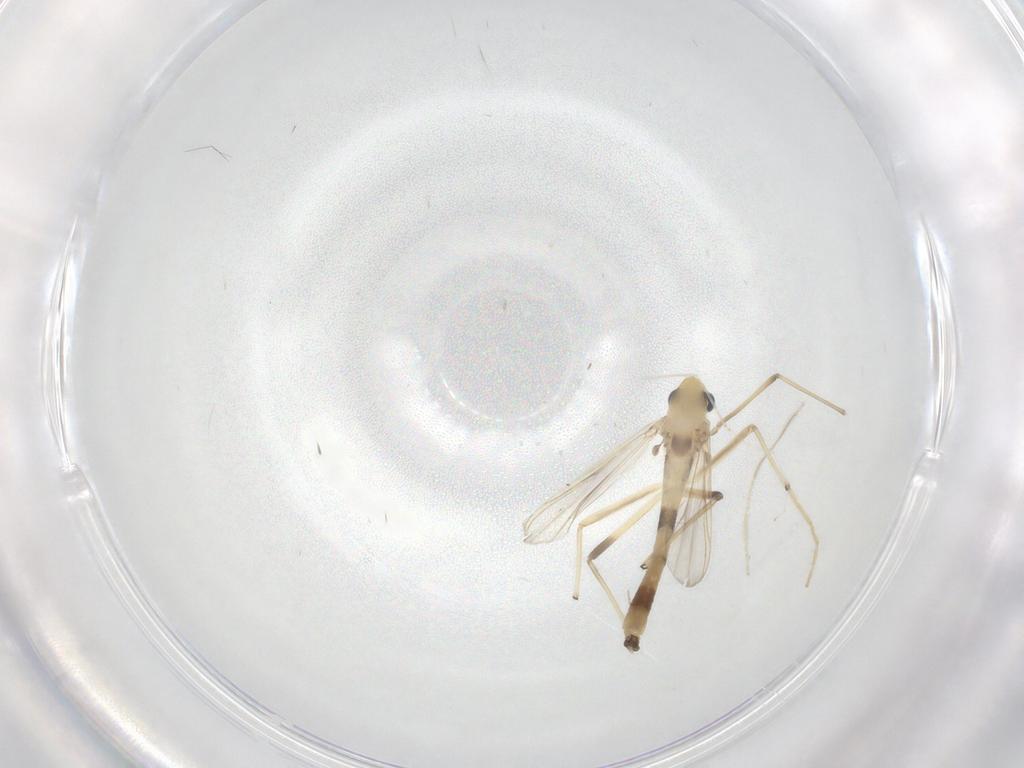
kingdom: Animalia
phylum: Arthropoda
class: Insecta
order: Diptera
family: Chironomidae
